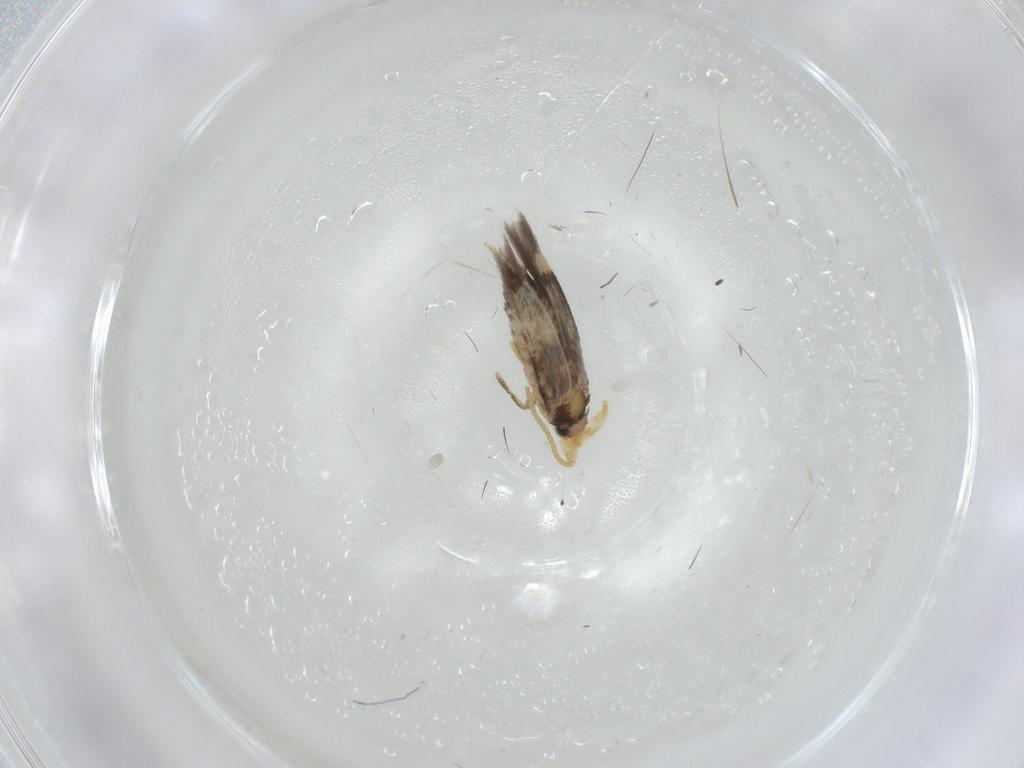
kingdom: Animalia
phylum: Arthropoda
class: Insecta
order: Lepidoptera
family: Nepticulidae
